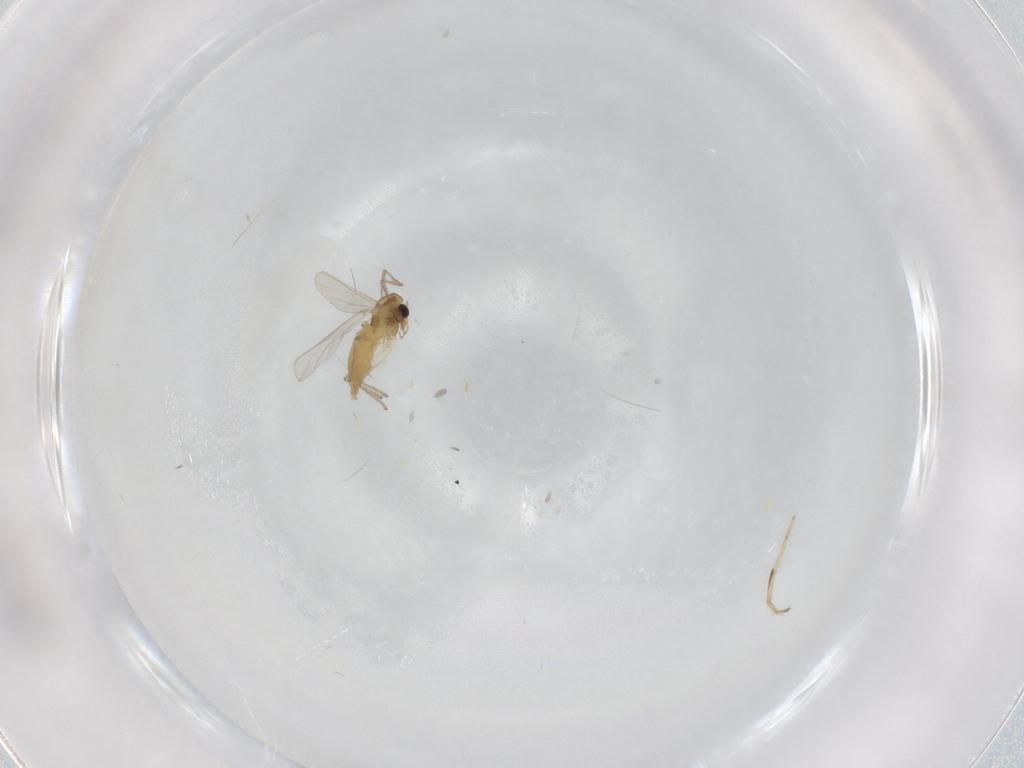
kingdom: Animalia
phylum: Arthropoda
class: Insecta
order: Diptera
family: Chironomidae
